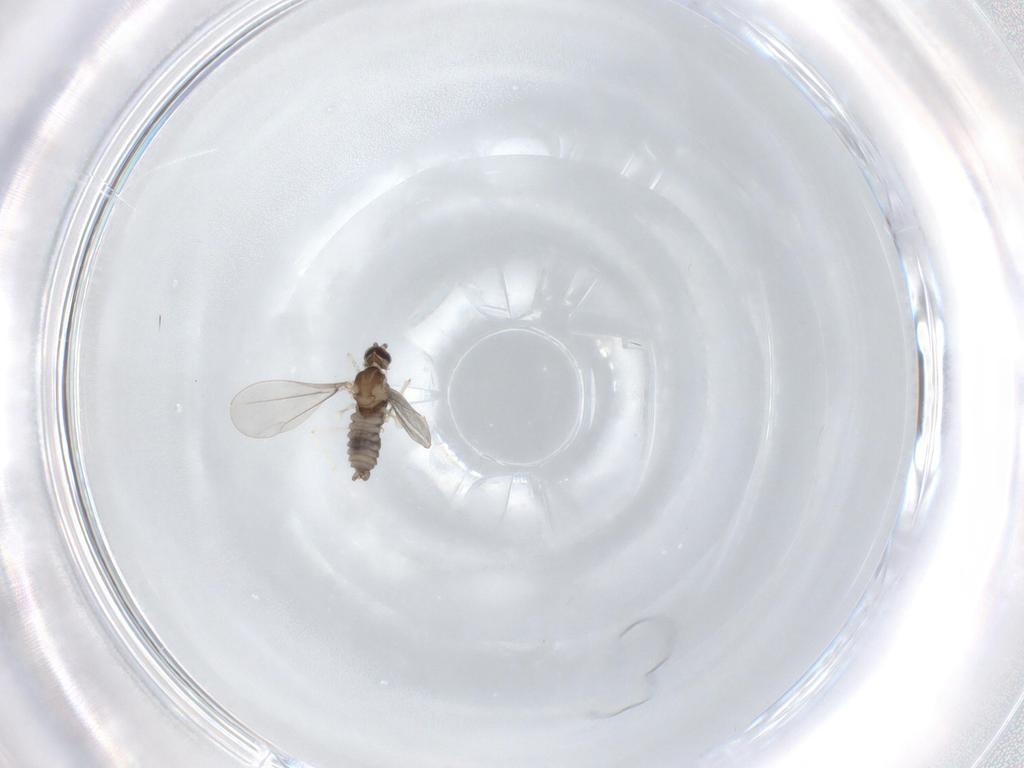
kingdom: Animalia
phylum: Arthropoda
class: Insecta
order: Diptera
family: Cecidomyiidae
